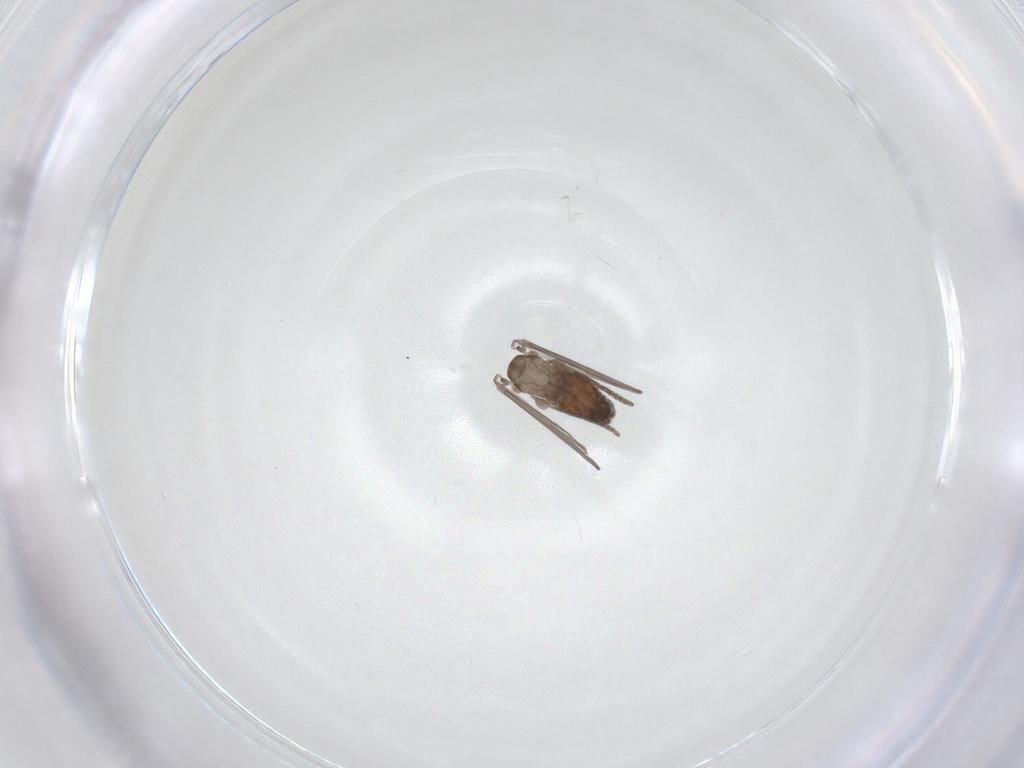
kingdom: Animalia
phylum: Arthropoda
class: Insecta
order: Diptera
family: Psychodidae
